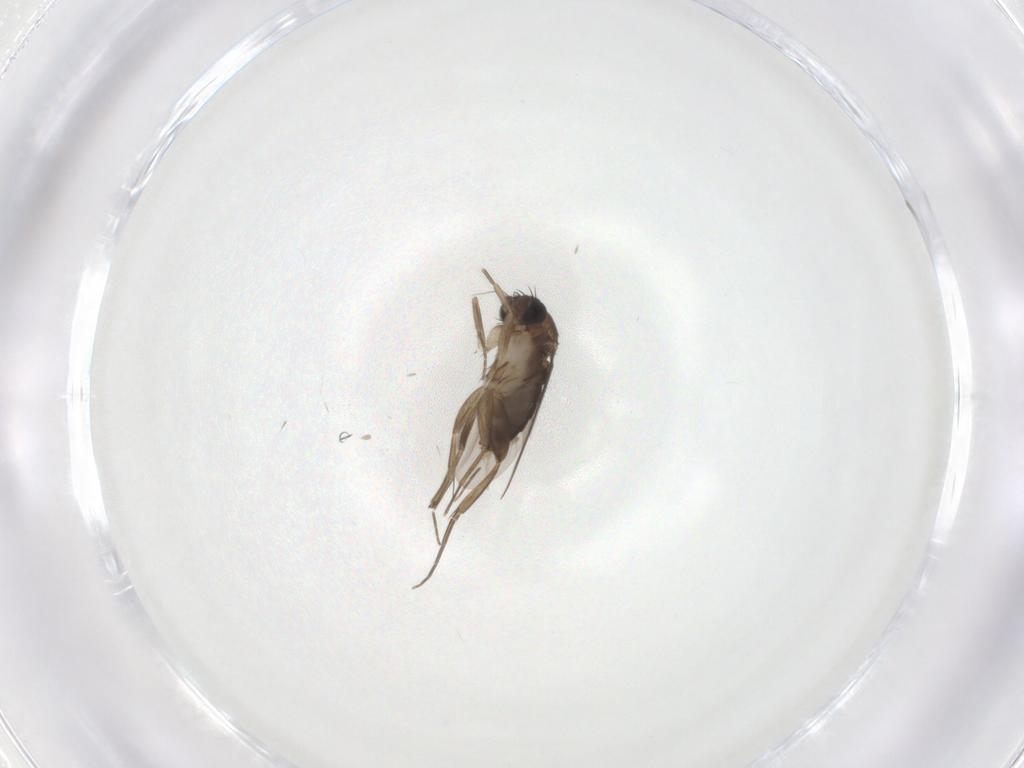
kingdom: Animalia
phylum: Arthropoda
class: Insecta
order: Diptera
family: Phoridae
